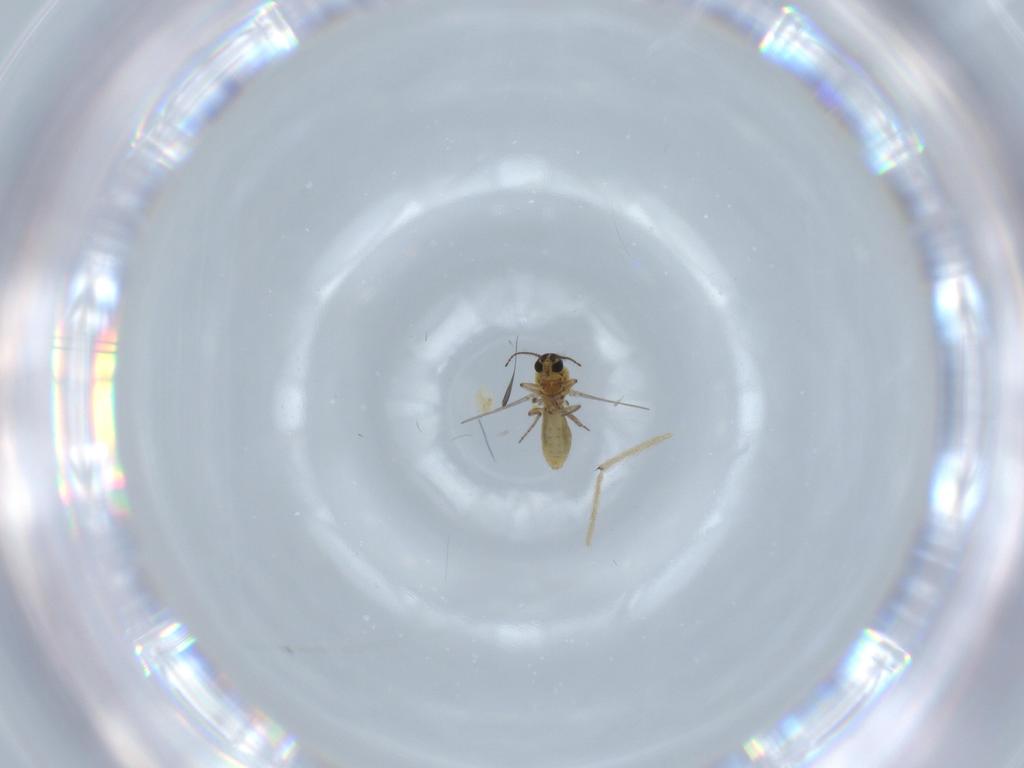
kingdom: Animalia
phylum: Arthropoda
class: Insecta
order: Diptera
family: Ceratopogonidae
